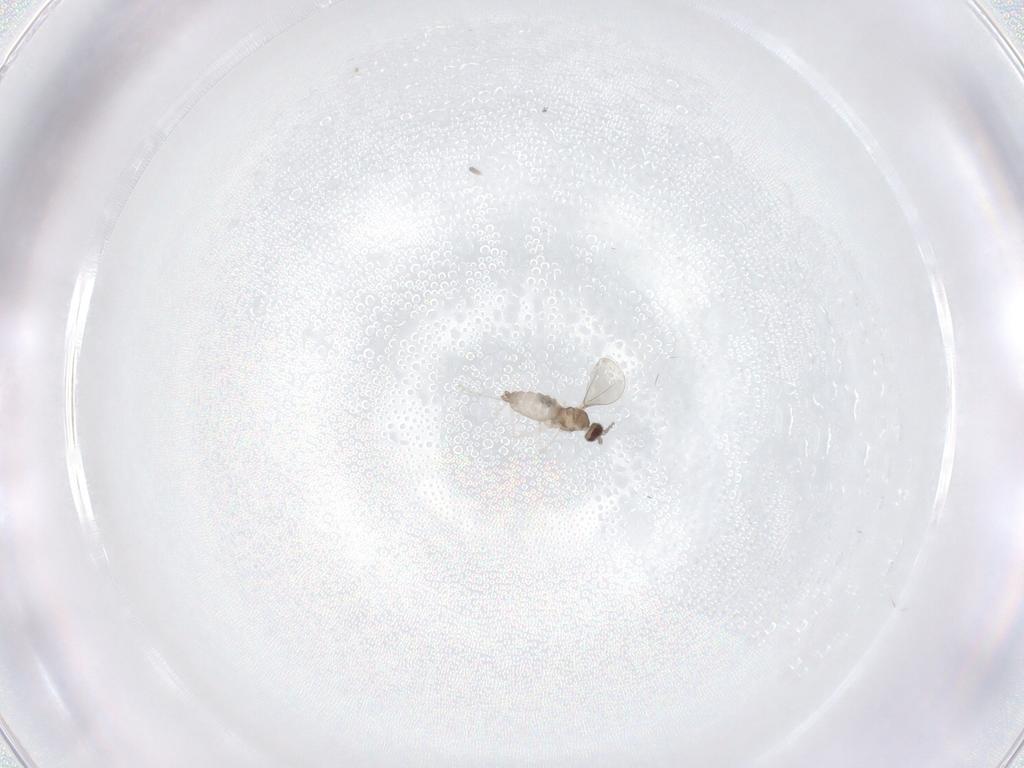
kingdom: Animalia
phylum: Arthropoda
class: Insecta
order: Diptera
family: Cecidomyiidae
